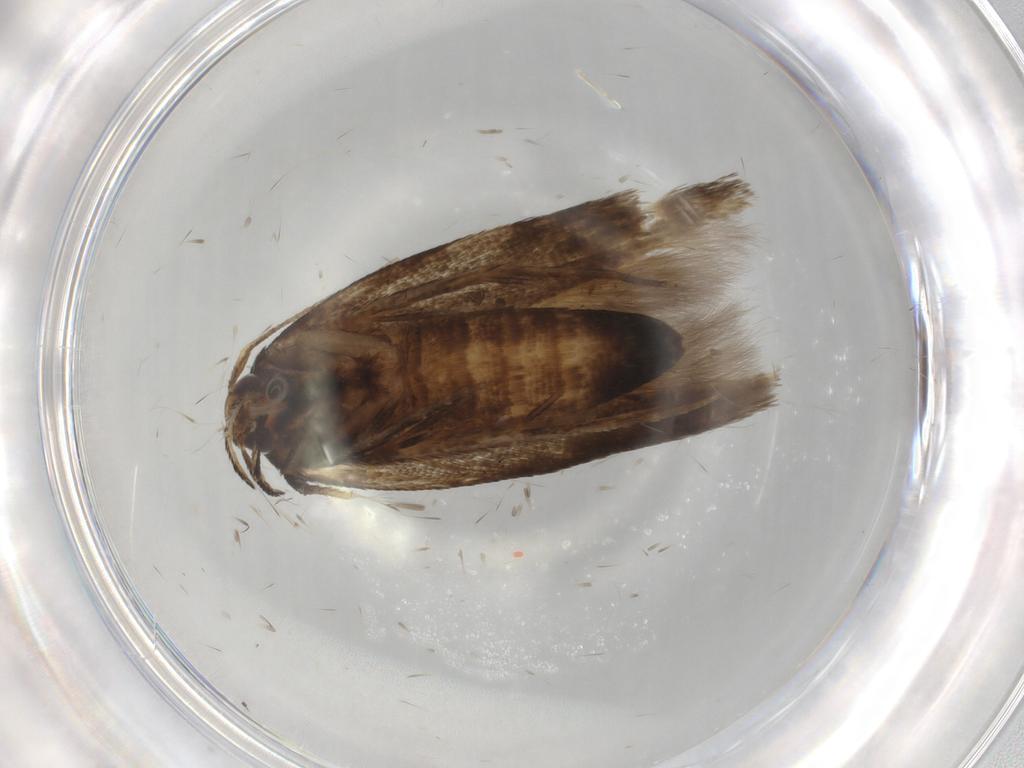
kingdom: Animalia
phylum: Arthropoda
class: Insecta
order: Lepidoptera
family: Cosmopterigidae
